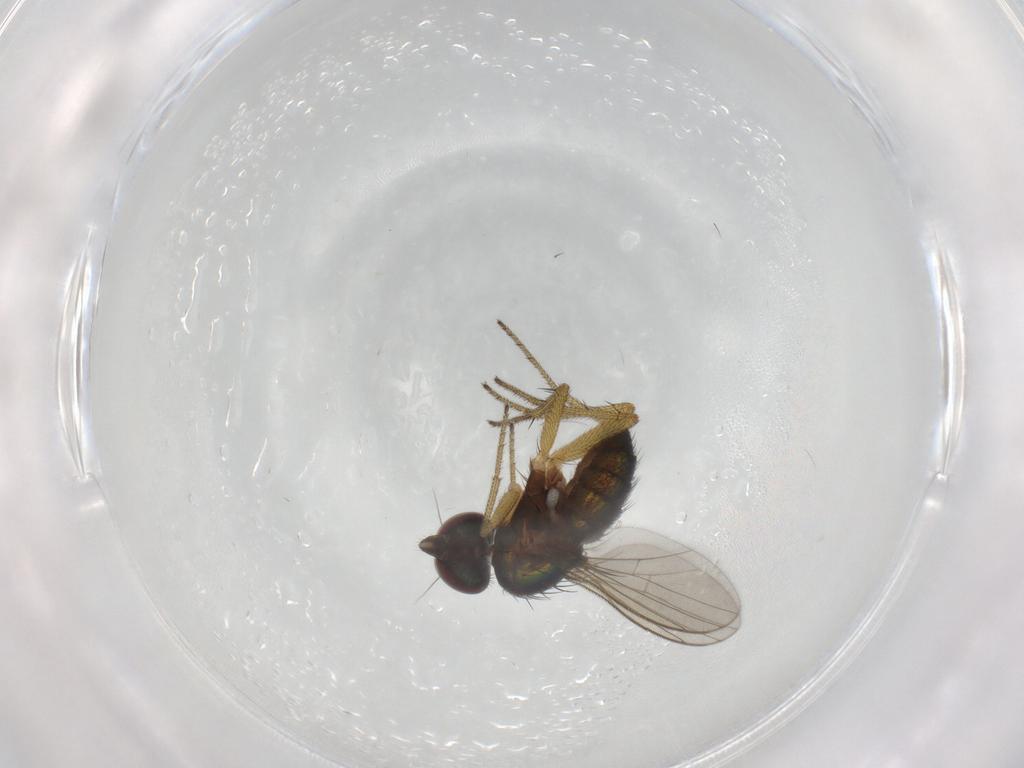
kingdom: Animalia
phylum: Arthropoda
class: Insecta
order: Diptera
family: Dolichopodidae
